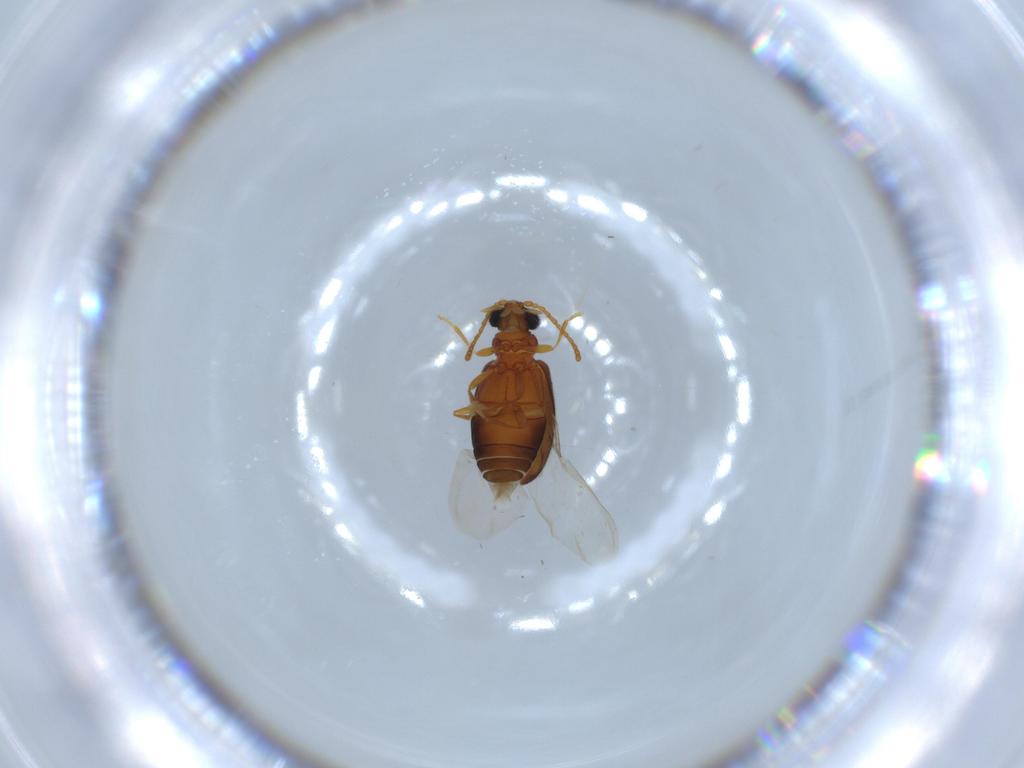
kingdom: Animalia
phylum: Arthropoda
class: Insecta
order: Coleoptera
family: Aderidae
